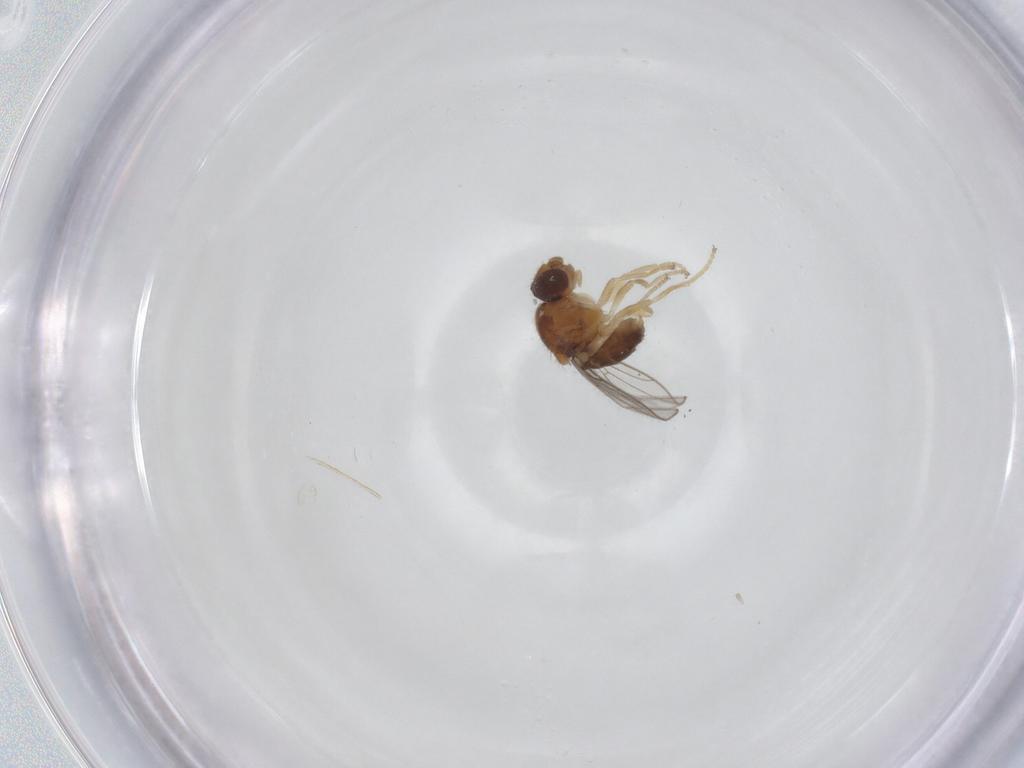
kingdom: Animalia
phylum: Arthropoda
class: Insecta
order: Diptera
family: Chloropidae
